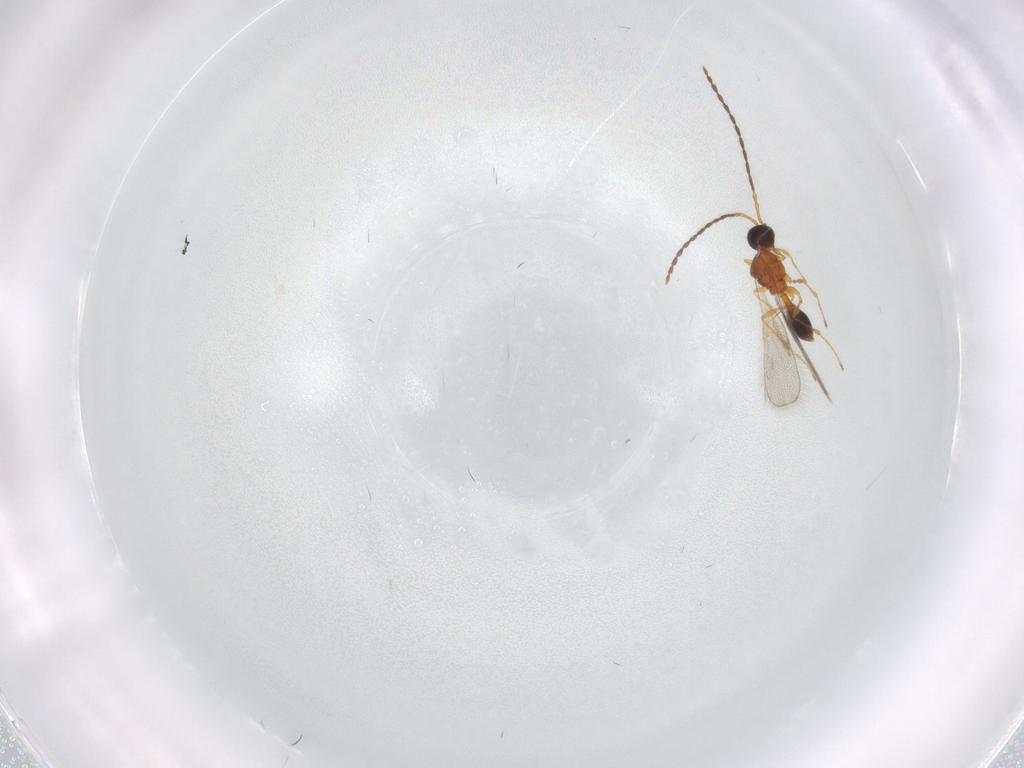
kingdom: Animalia
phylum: Arthropoda
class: Insecta
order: Hymenoptera
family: Diapriidae
